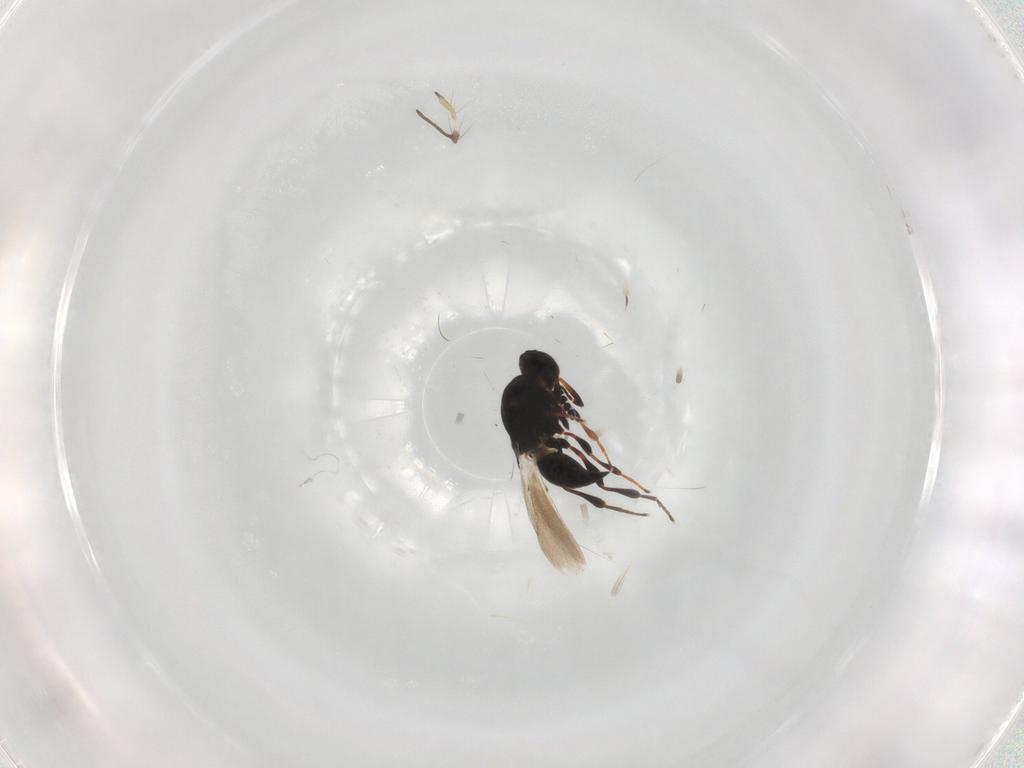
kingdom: Animalia
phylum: Arthropoda
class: Insecta
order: Hymenoptera
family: Platygastridae
